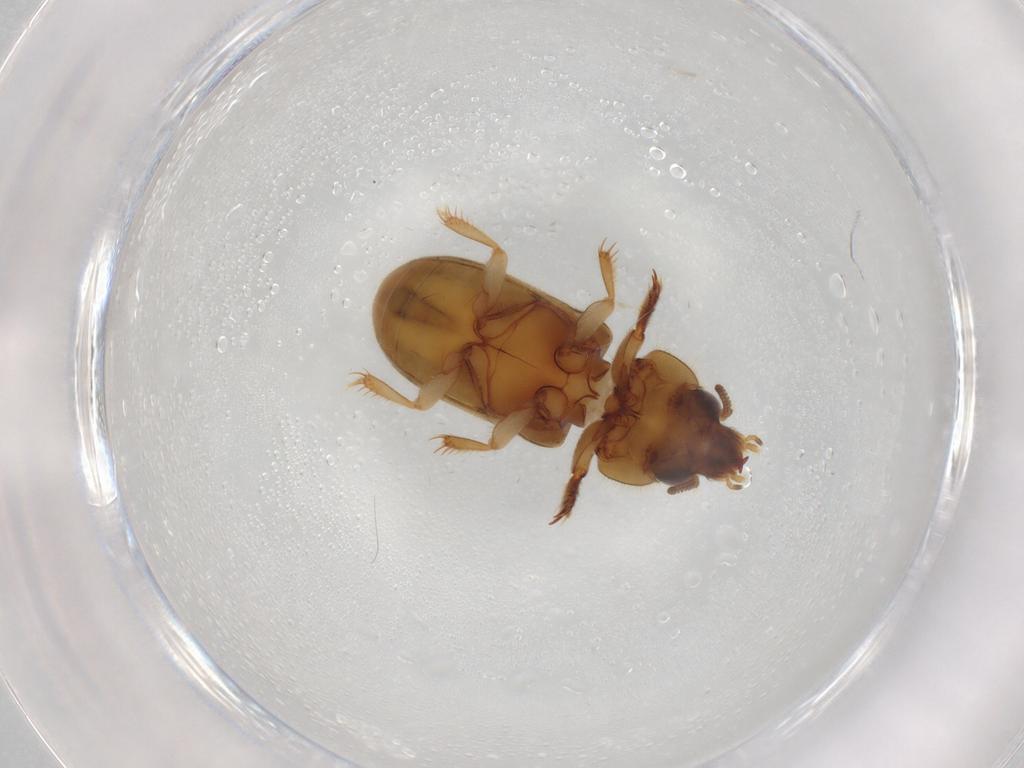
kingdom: Animalia
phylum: Arthropoda
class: Insecta
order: Coleoptera
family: Heteroceridae
